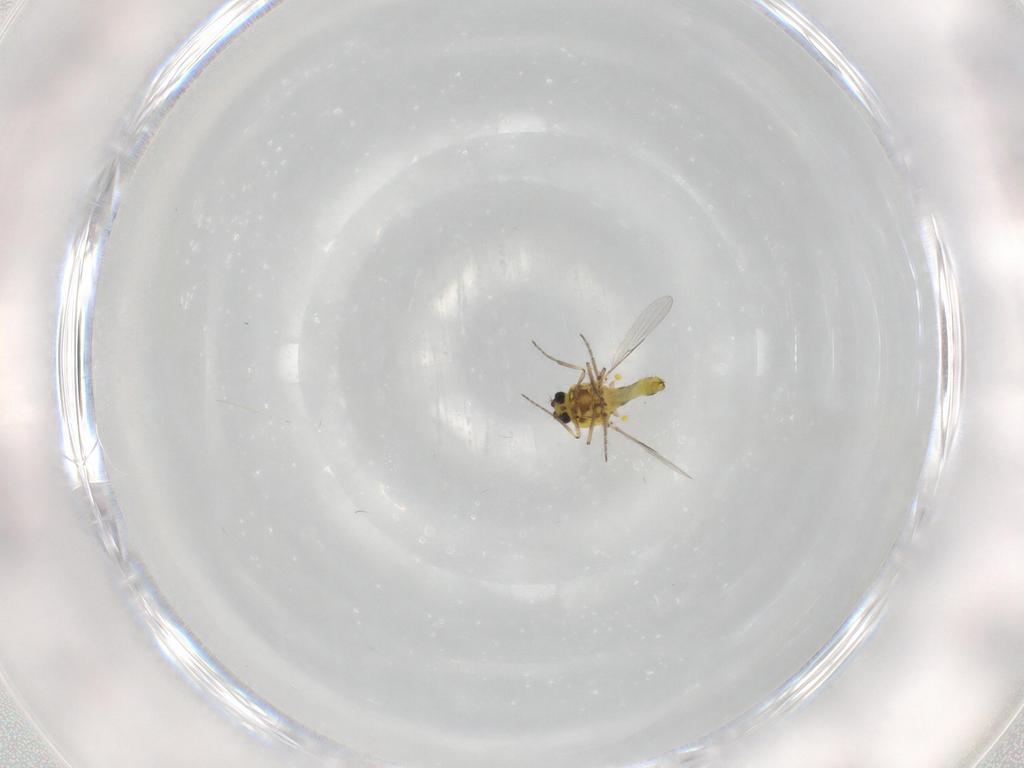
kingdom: Animalia
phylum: Arthropoda
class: Insecta
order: Diptera
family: Ceratopogonidae
